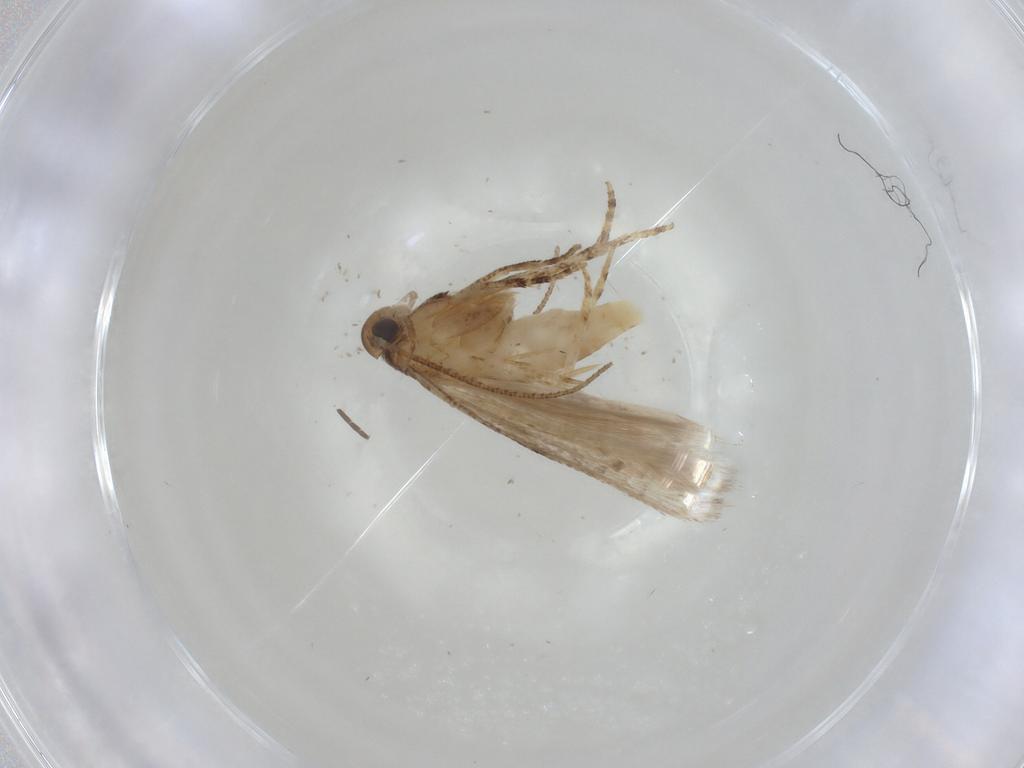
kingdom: Animalia
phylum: Arthropoda
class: Insecta
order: Lepidoptera
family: Gelechiidae
